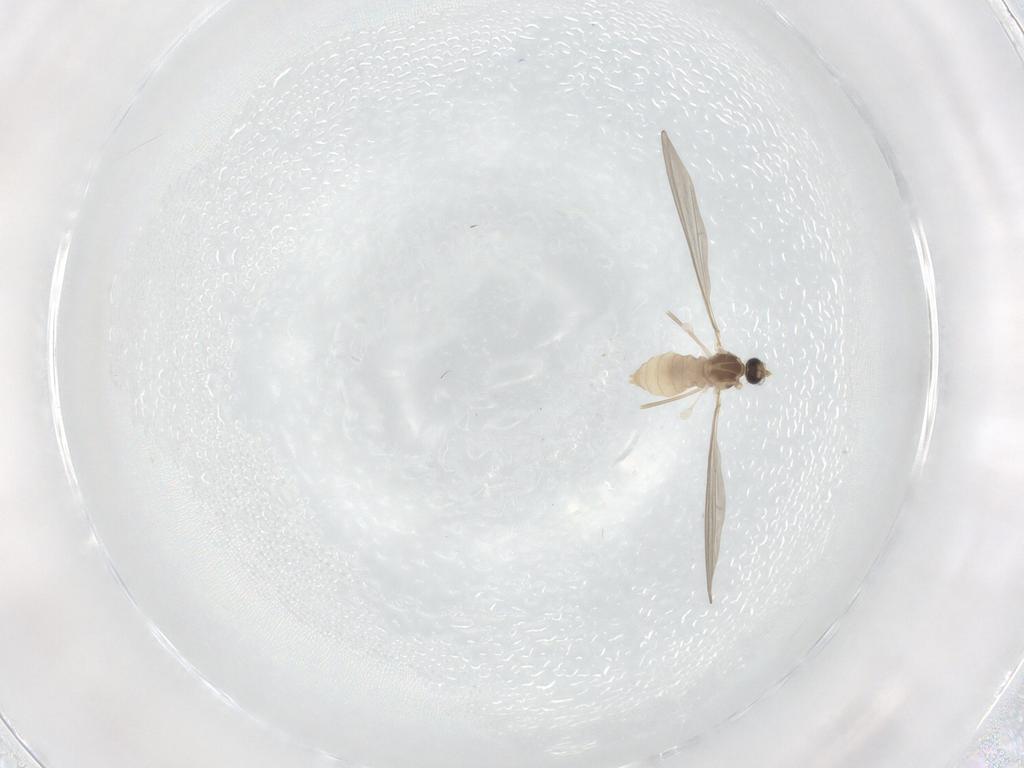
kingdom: Animalia
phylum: Arthropoda
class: Insecta
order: Diptera
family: Cecidomyiidae
